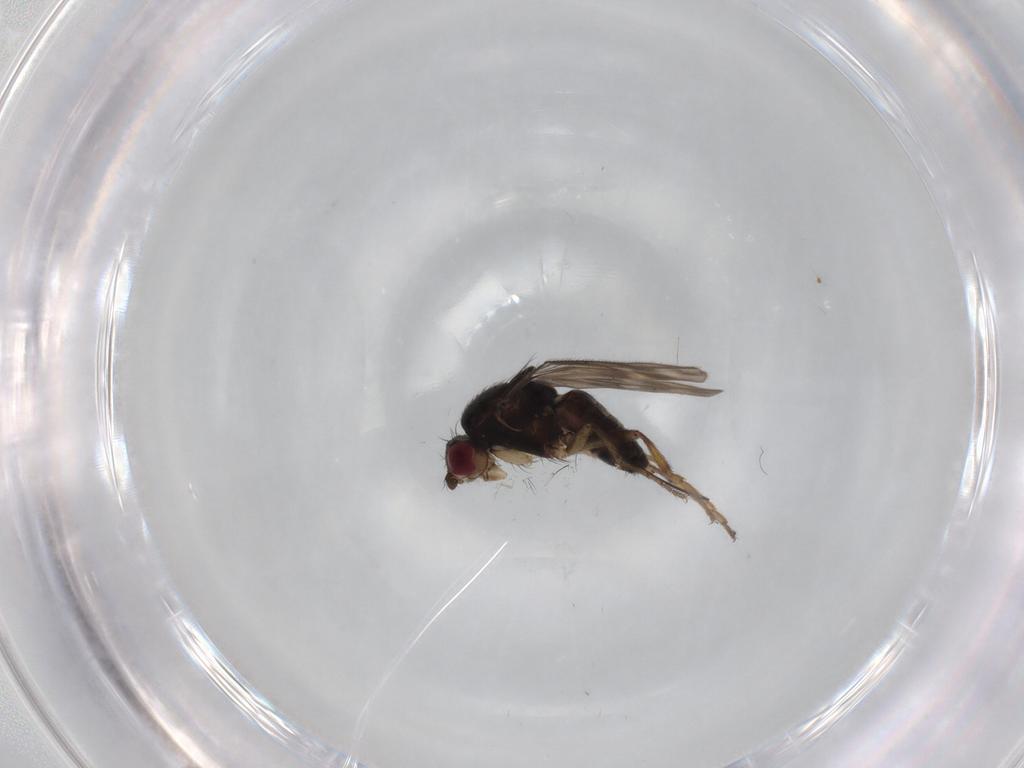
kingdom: Animalia
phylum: Arthropoda
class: Insecta
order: Diptera
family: Sphaeroceridae
